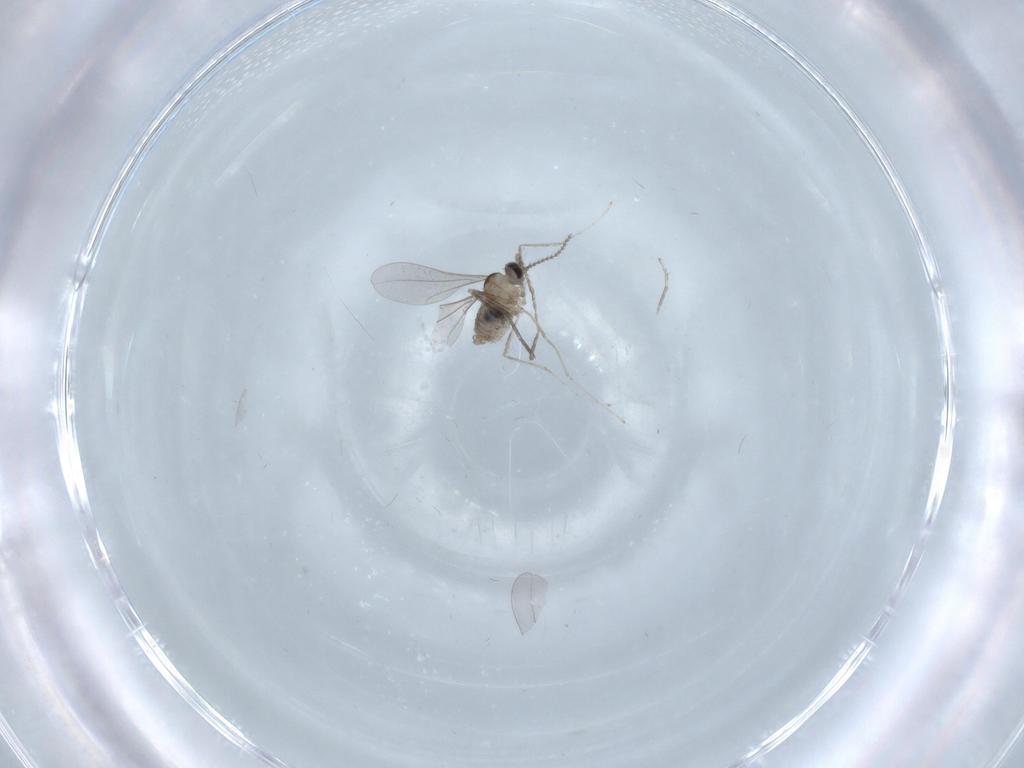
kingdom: Animalia
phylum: Arthropoda
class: Insecta
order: Diptera
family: Cecidomyiidae
